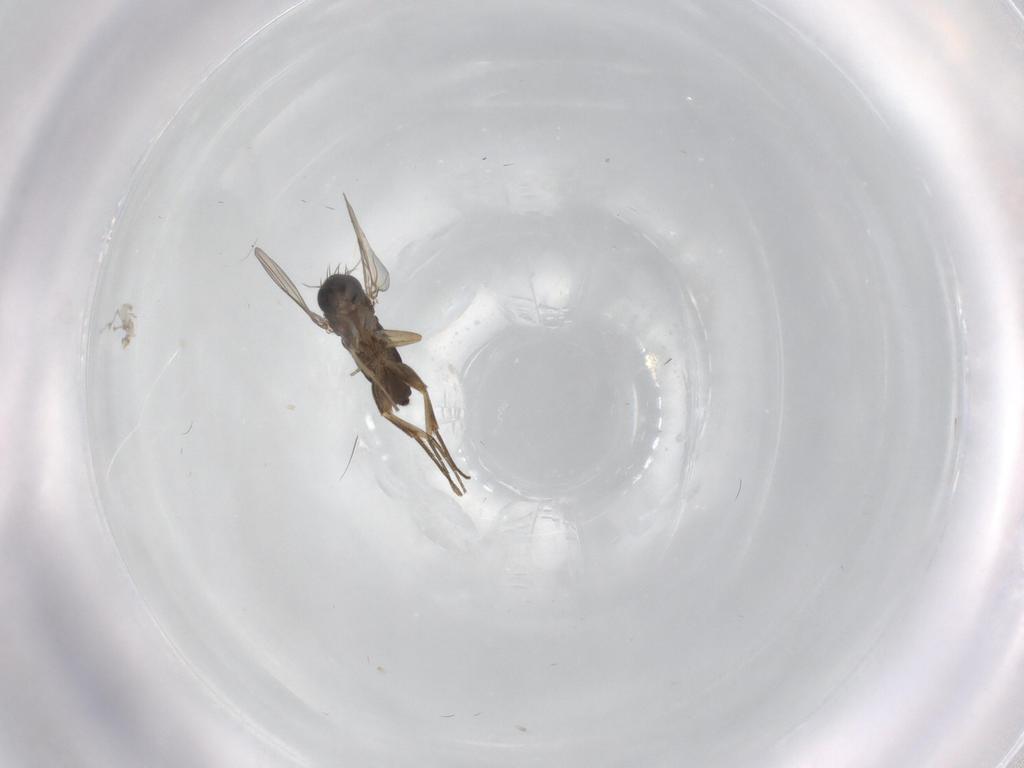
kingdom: Animalia
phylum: Arthropoda
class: Insecta
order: Diptera
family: Phoridae
